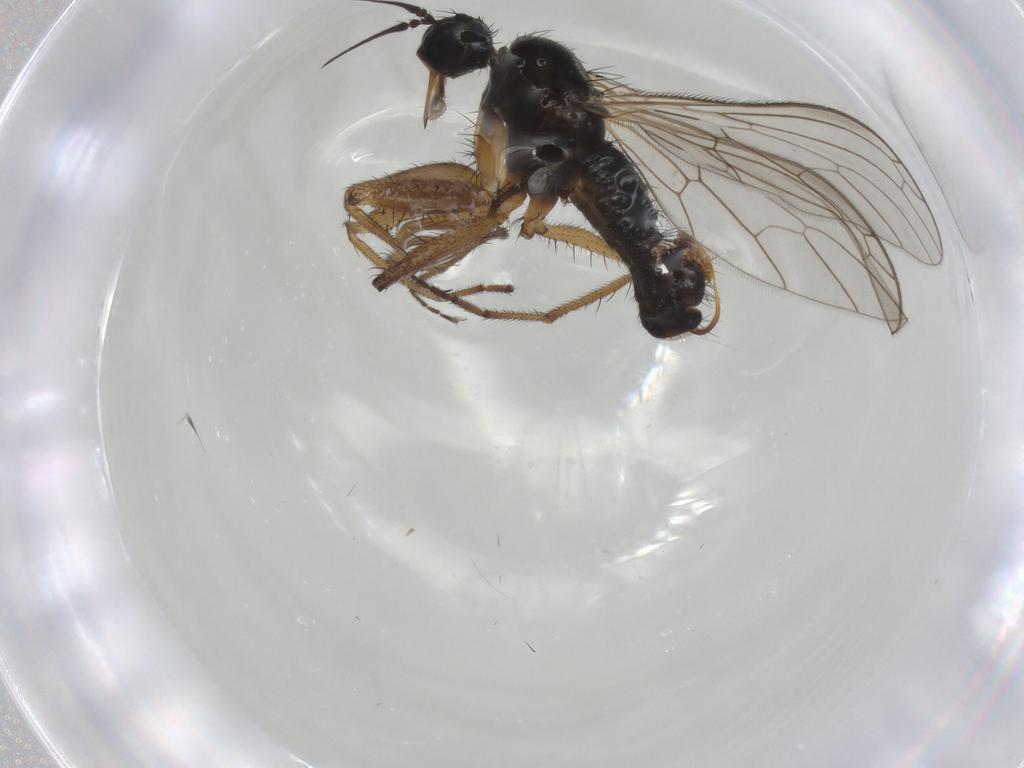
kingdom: Animalia
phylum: Arthropoda
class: Insecta
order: Diptera
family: Empididae
